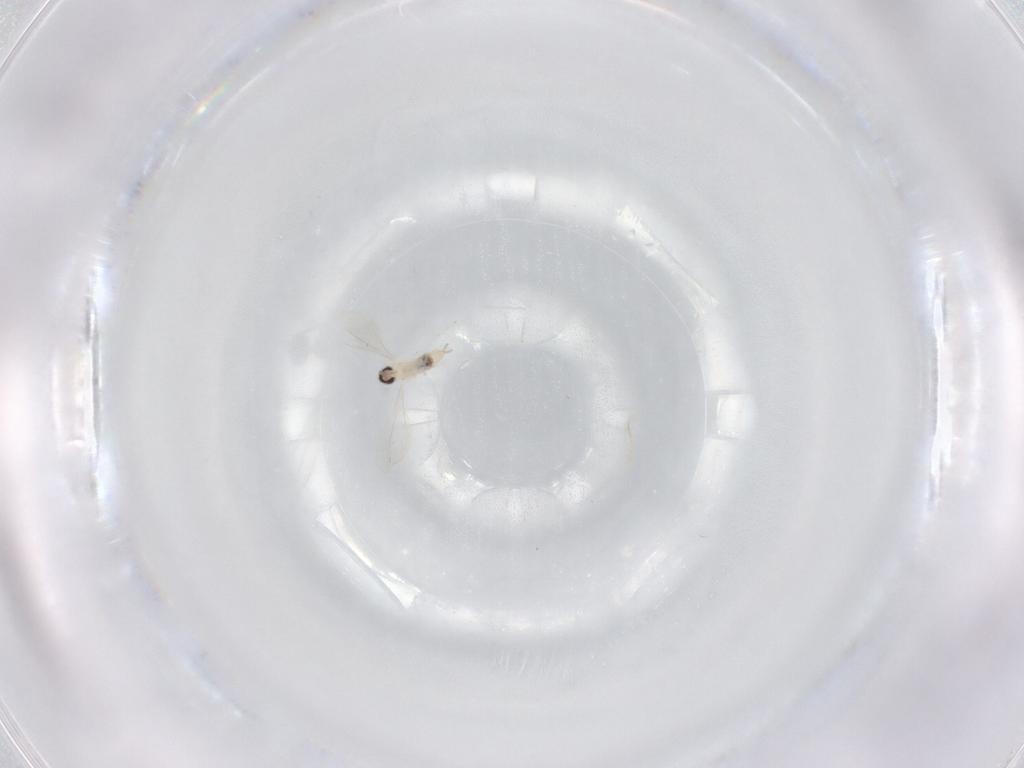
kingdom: Animalia
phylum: Arthropoda
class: Insecta
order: Diptera
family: Cecidomyiidae
